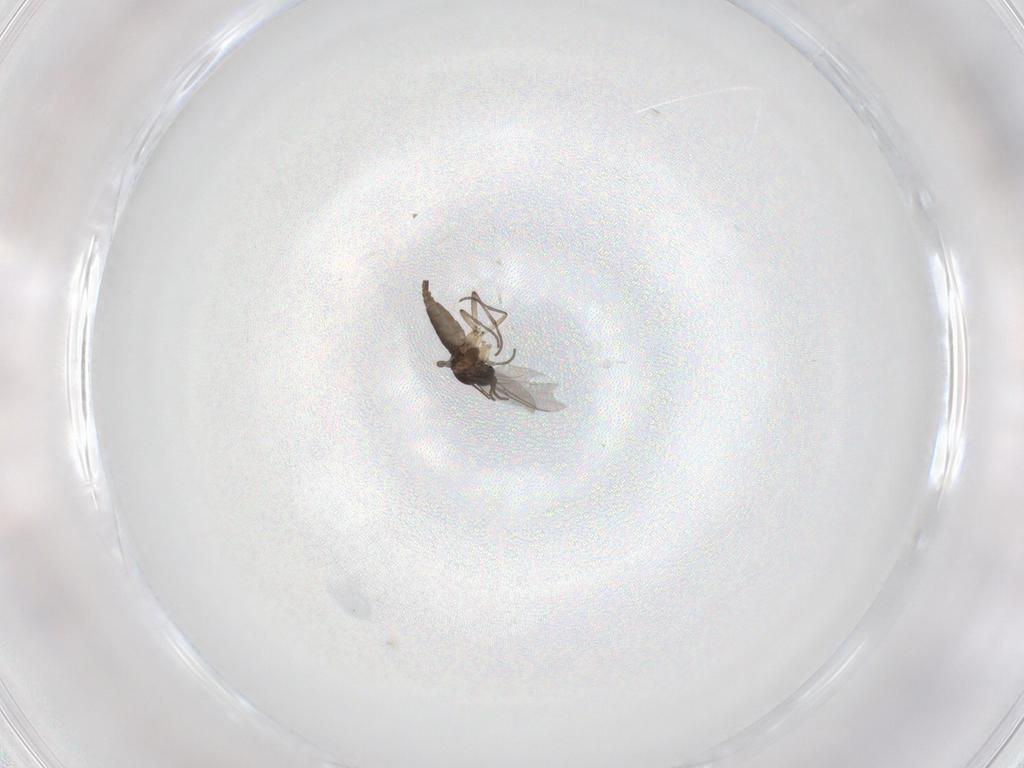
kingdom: Animalia
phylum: Arthropoda
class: Insecta
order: Diptera
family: Sciaridae
